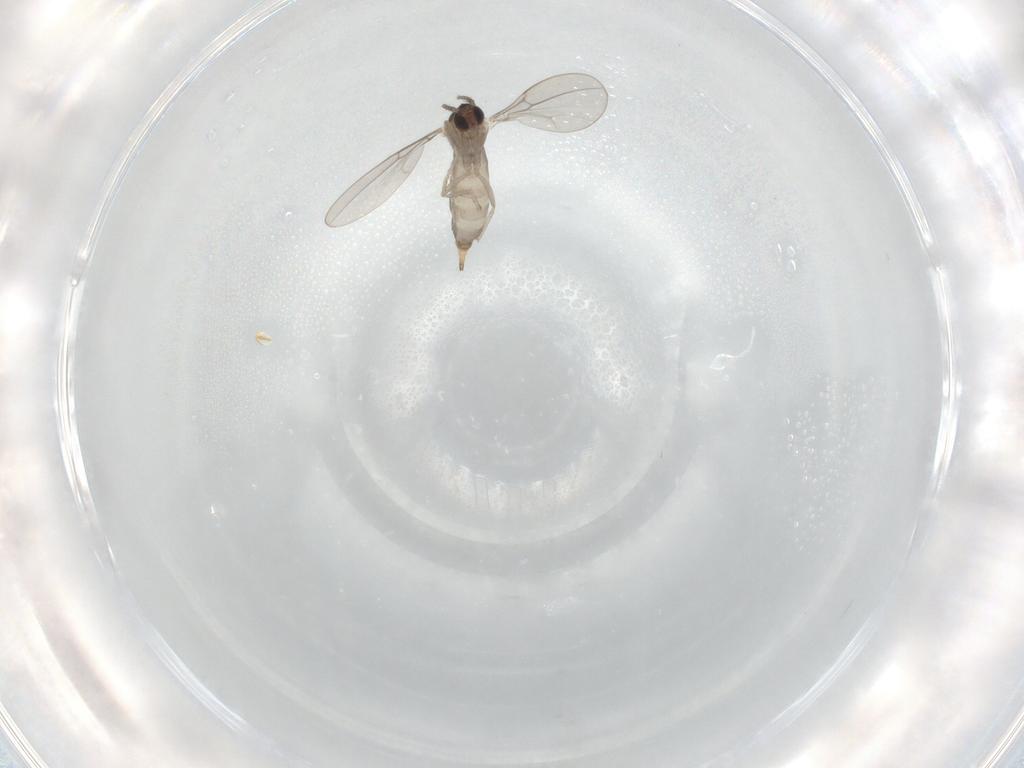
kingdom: Animalia
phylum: Arthropoda
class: Insecta
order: Diptera
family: Cecidomyiidae
